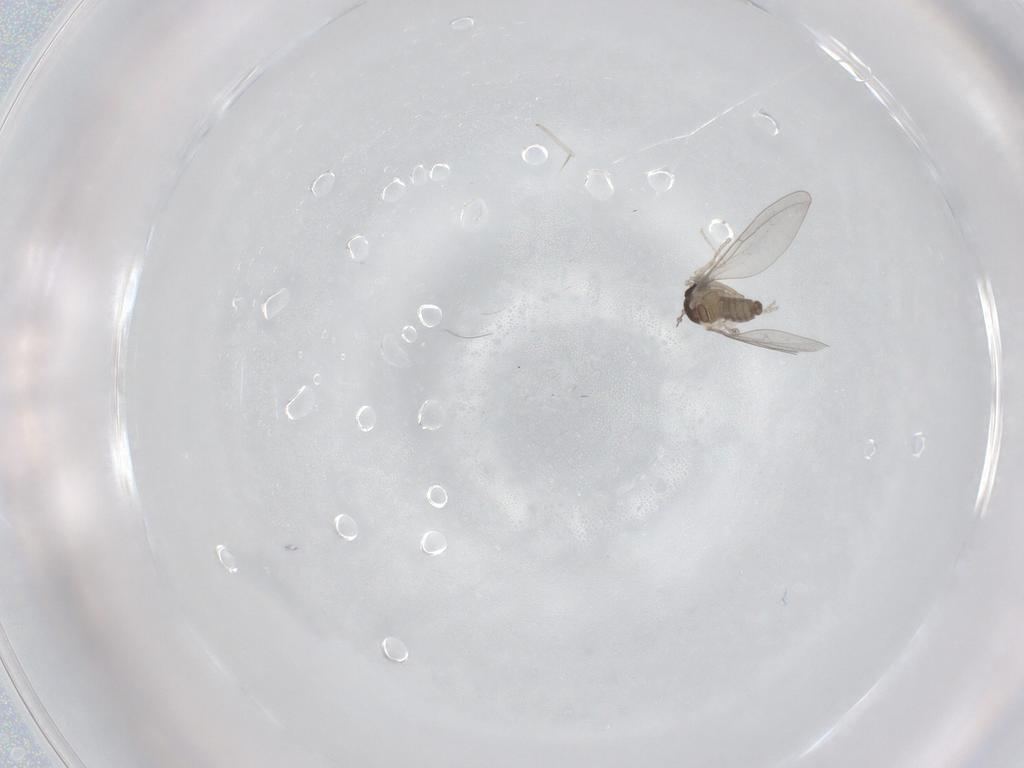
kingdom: Animalia
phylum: Arthropoda
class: Insecta
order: Diptera
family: Cecidomyiidae
